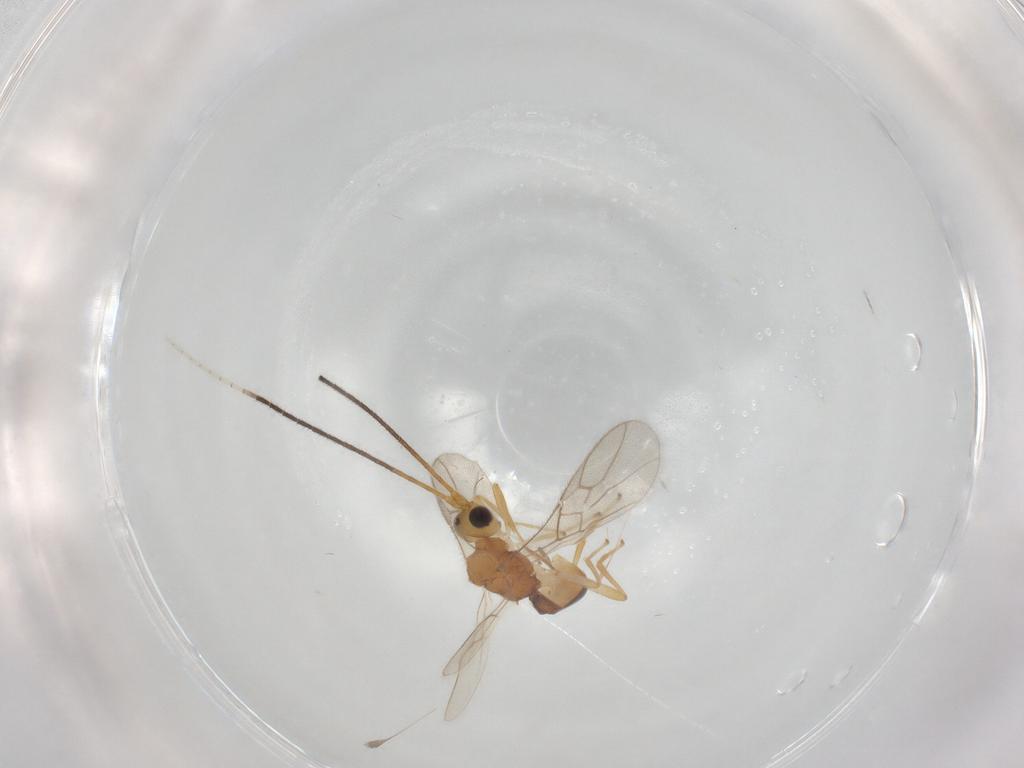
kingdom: Animalia
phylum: Arthropoda
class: Insecta
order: Hymenoptera
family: Braconidae
